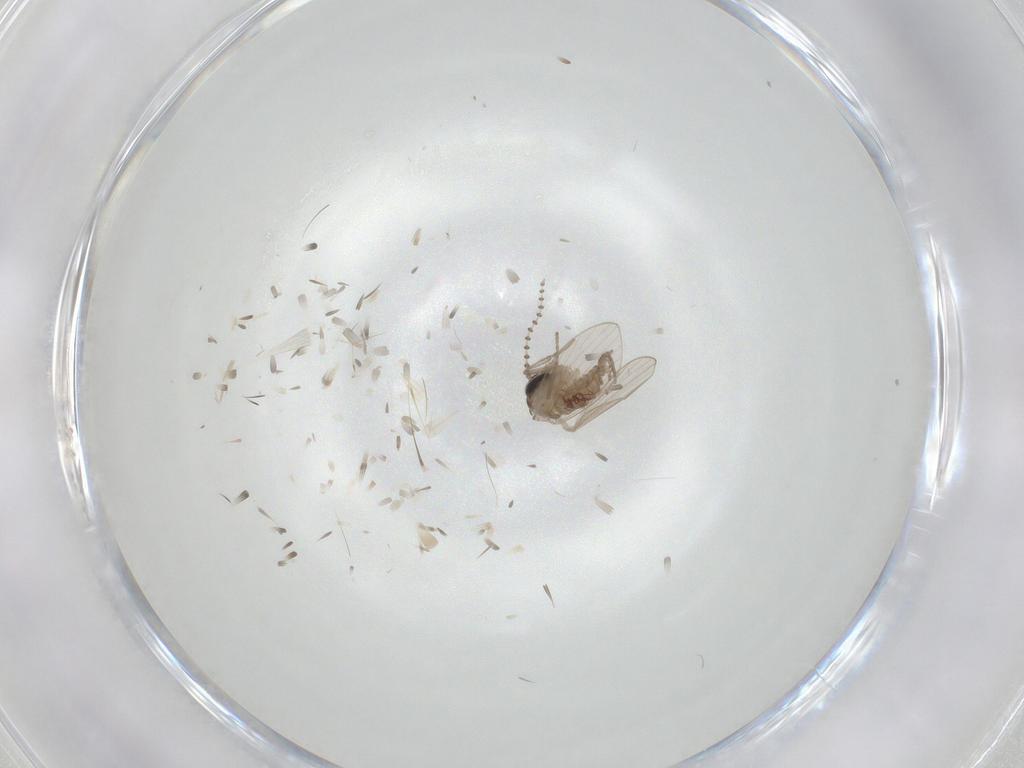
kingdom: Animalia
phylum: Arthropoda
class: Insecta
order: Diptera
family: Psychodidae
